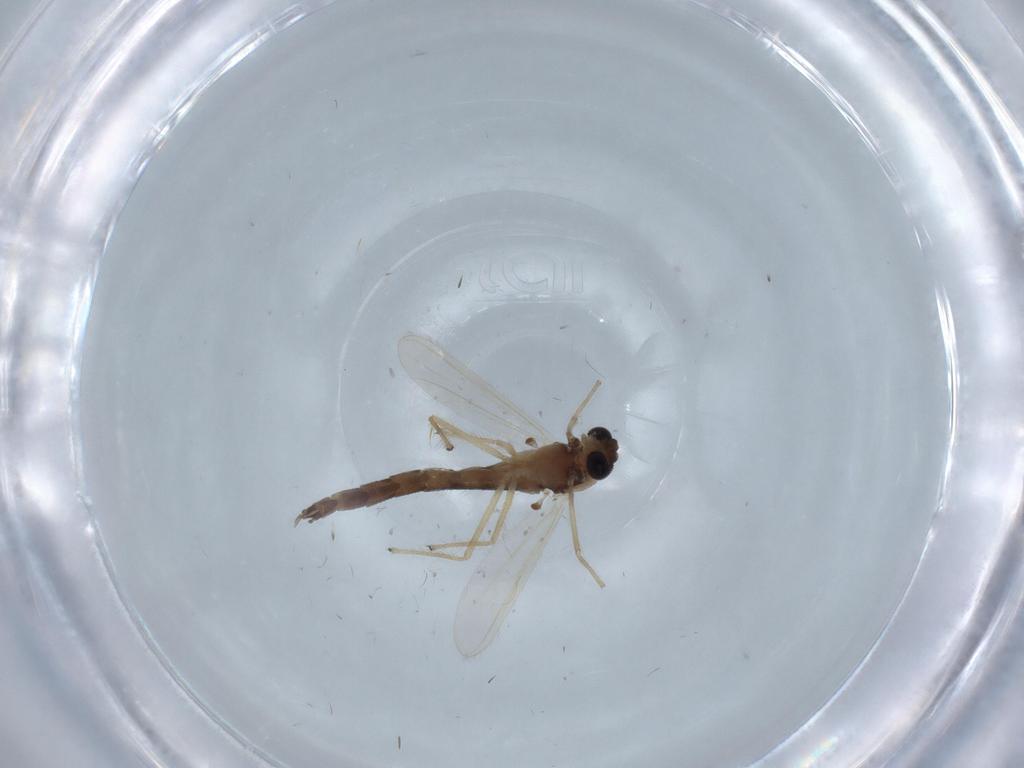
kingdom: Animalia
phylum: Arthropoda
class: Insecta
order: Diptera
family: Chironomidae
